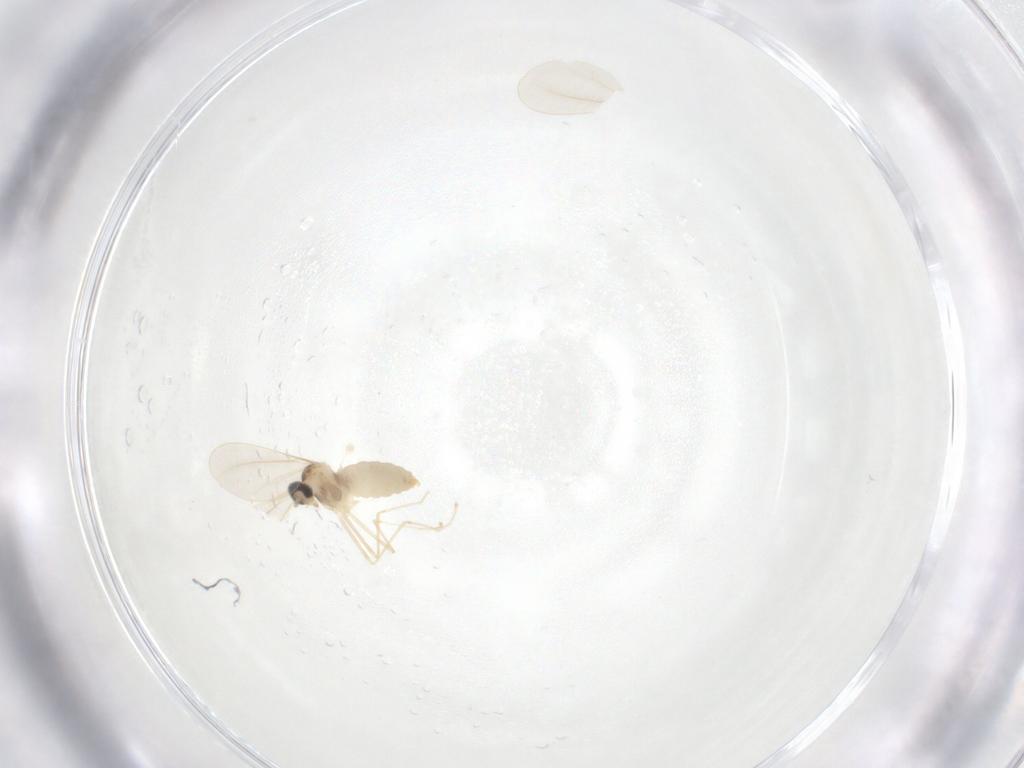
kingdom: Animalia
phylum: Arthropoda
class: Insecta
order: Diptera
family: Cecidomyiidae
